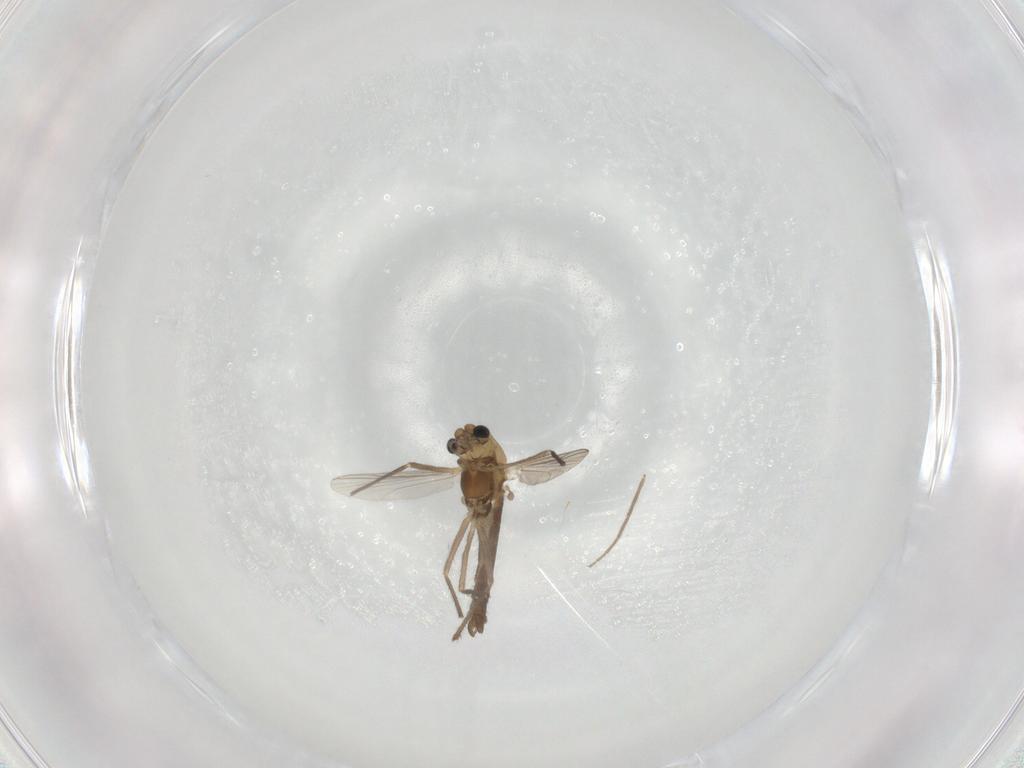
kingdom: Animalia
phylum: Arthropoda
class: Insecta
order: Diptera
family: Chironomidae
